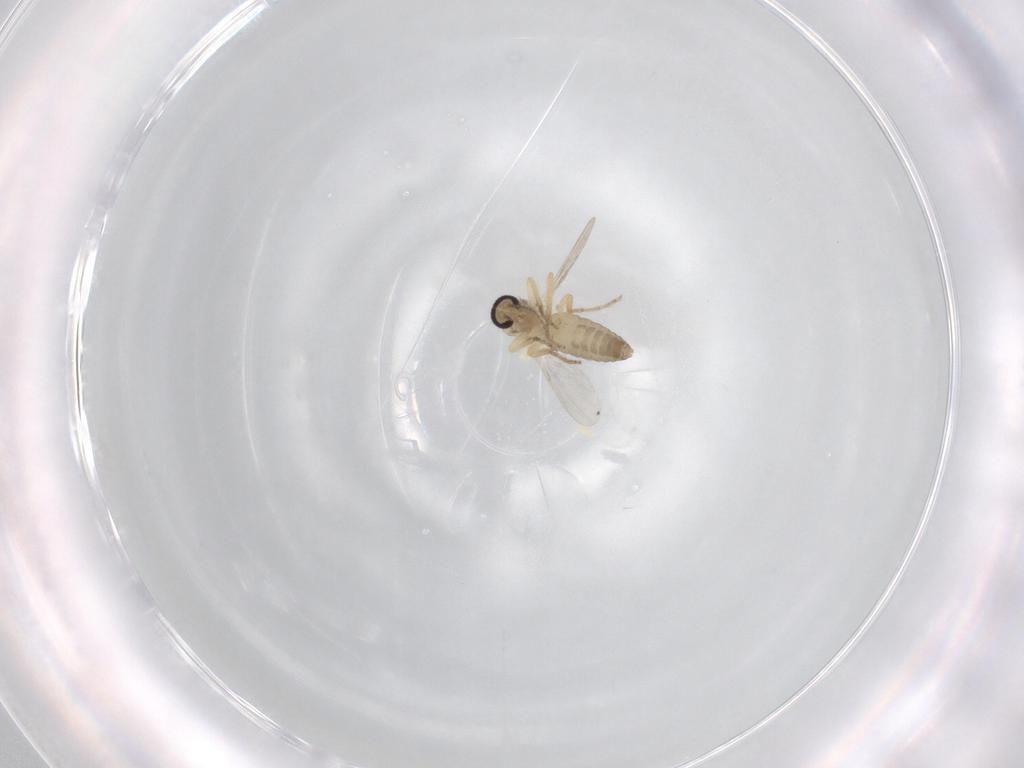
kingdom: Animalia
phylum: Arthropoda
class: Insecta
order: Diptera
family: Ceratopogonidae
